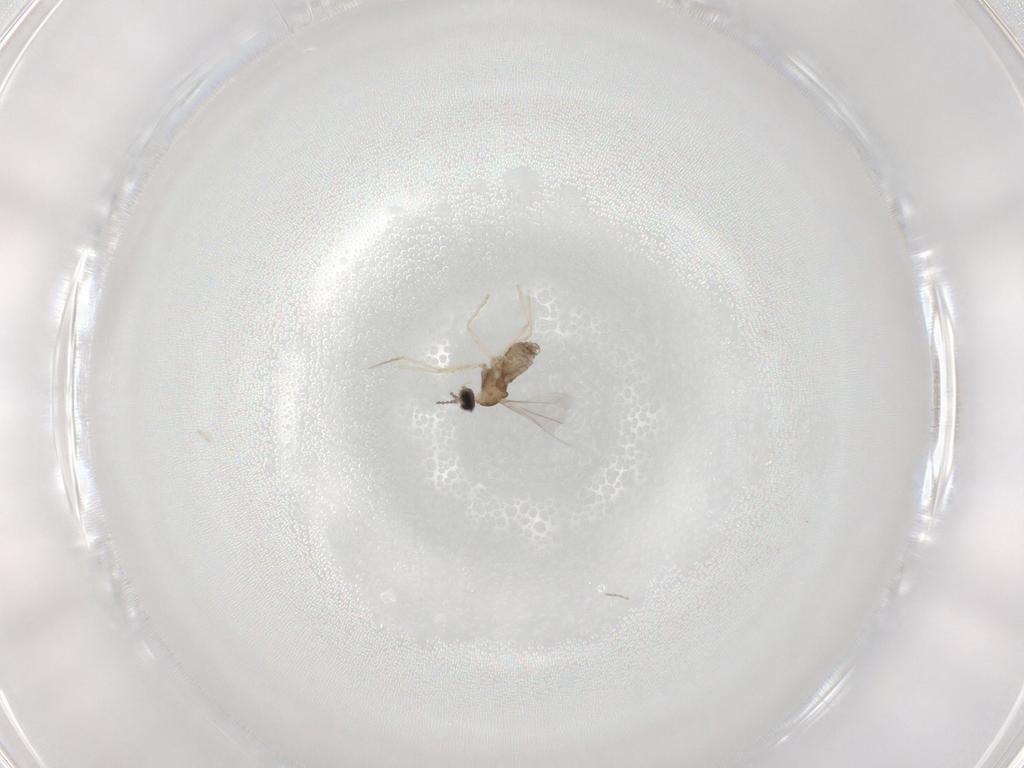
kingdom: Animalia
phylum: Arthropoda
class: Insecta
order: Diptera
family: Cecidomyiidae
